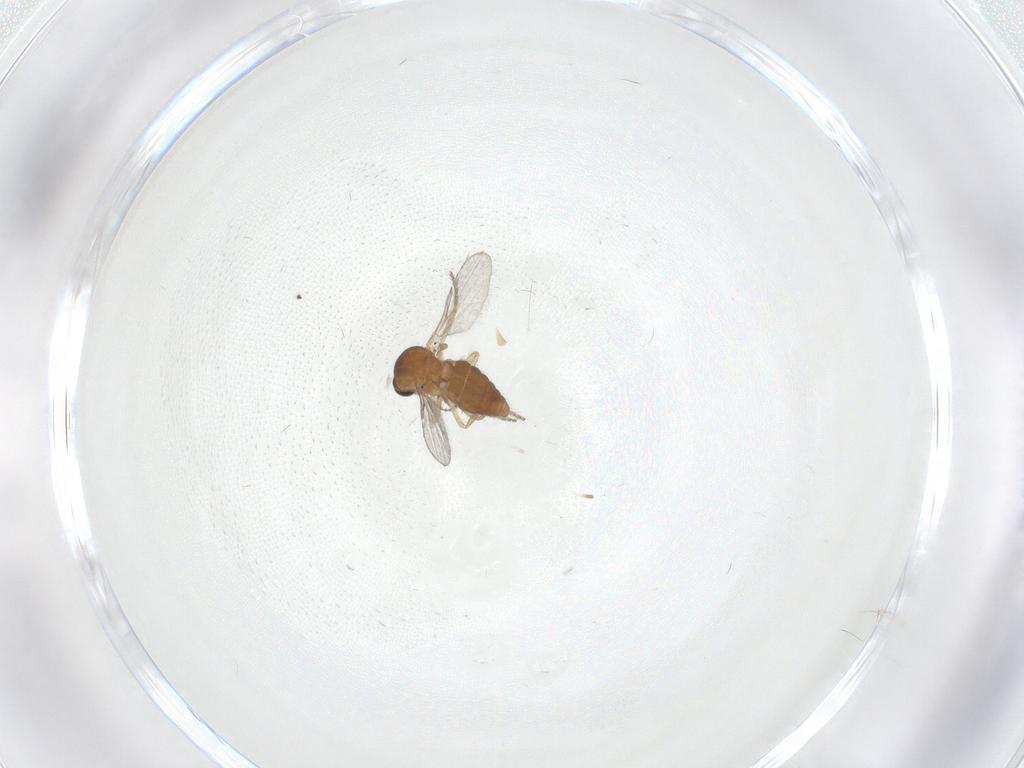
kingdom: Animalia
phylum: Arthropoda
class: Insecta
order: Diptera
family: Ceratopogonidae
